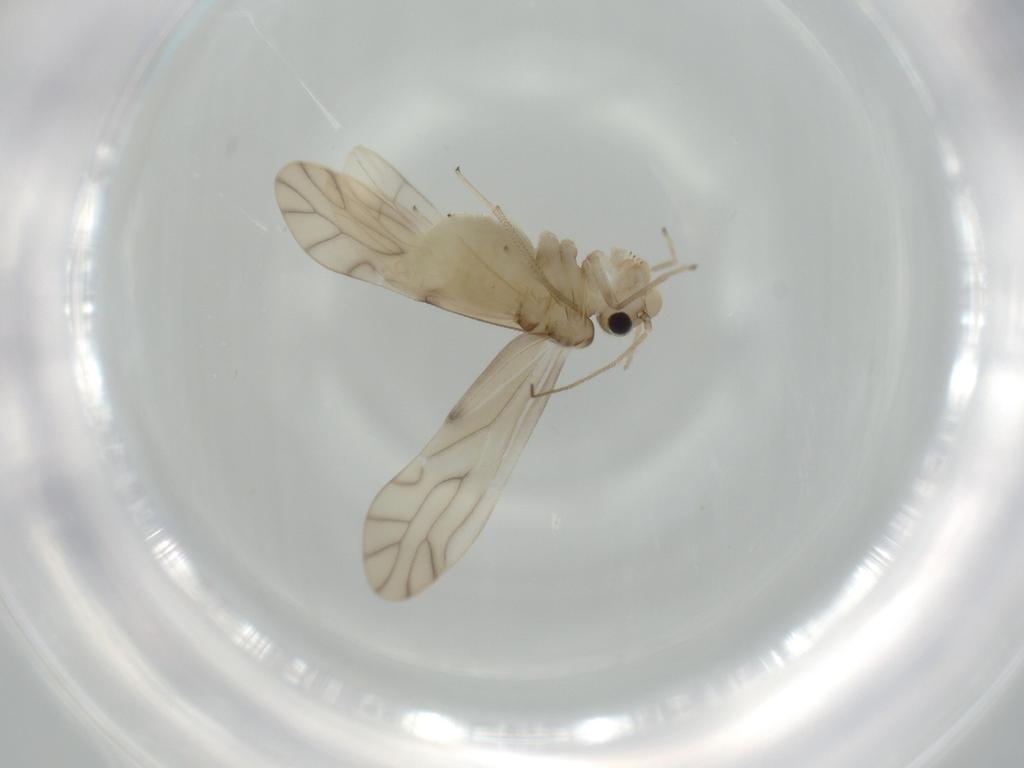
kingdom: Animalia
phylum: Arthropoda
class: Insecta
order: Psocodea
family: Caeciliusidae
